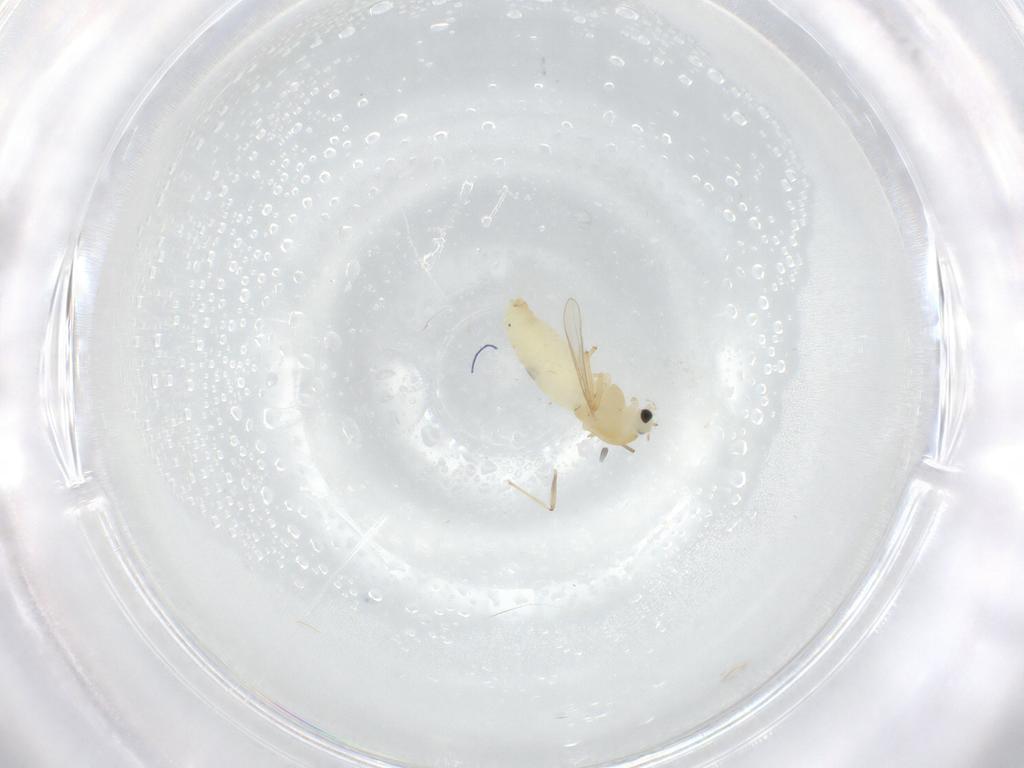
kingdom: Animalia
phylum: Arthropoda
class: Insecta
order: Diptera
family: Chironomidae
